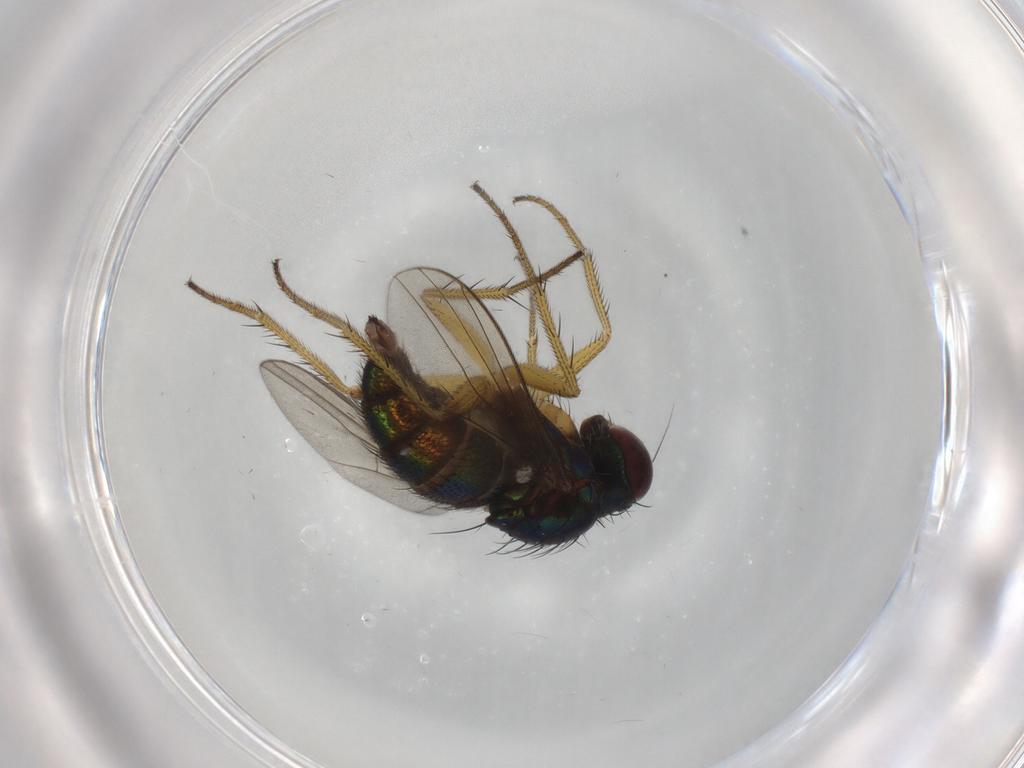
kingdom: Animalia
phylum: Arthropoda
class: Insecta
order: Diptera
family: Dolichopodidae
